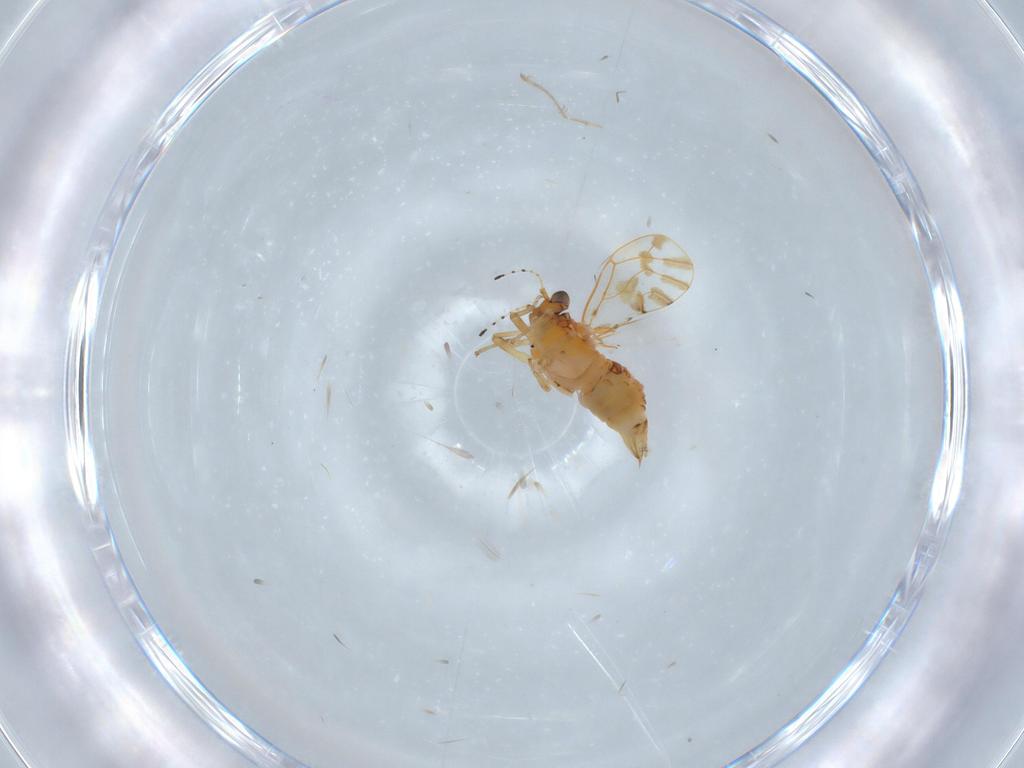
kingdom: Animalia
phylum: Arthropoda
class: Insecta
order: Hemiptera
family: Aphalaridae
